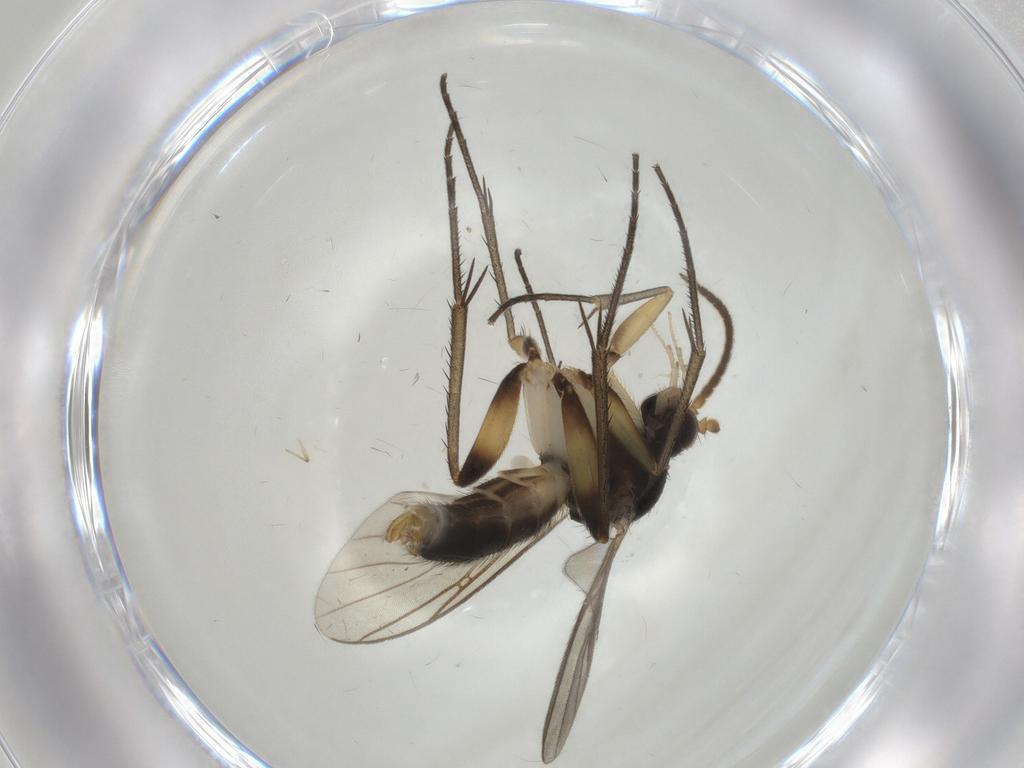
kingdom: Animalia
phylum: Arthropoda
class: Insecta
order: Diptera
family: Mycetophilidae
